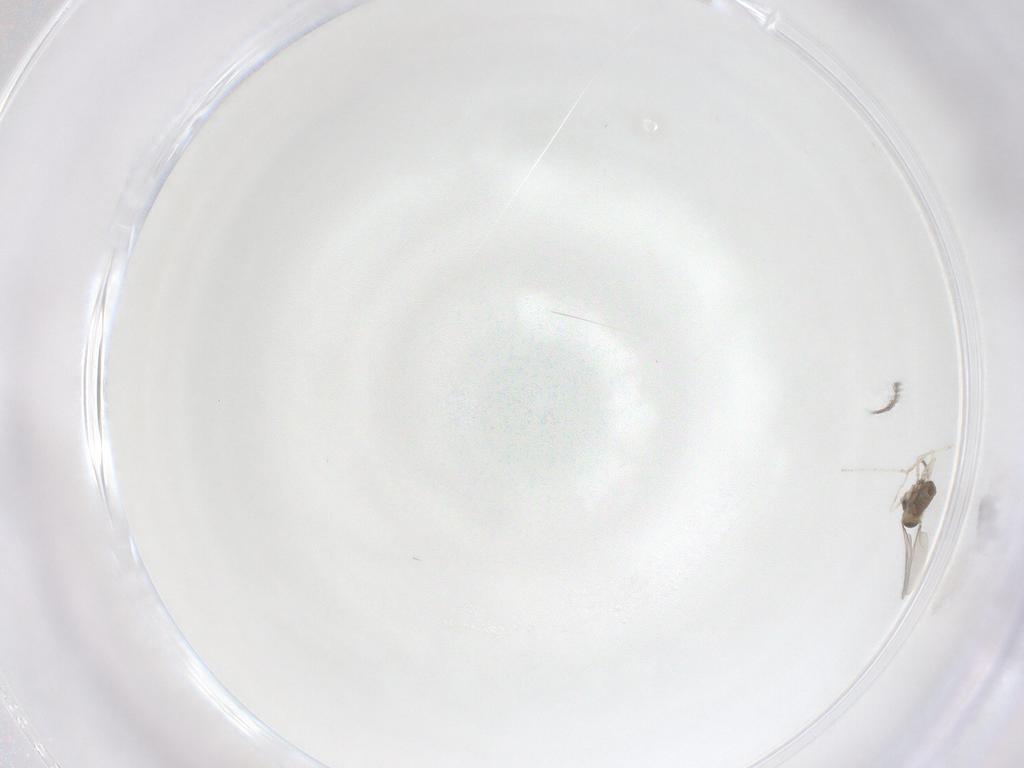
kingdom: Animalia
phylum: Arthropoda
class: Insecta
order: Diptera
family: Cecidomyiidae
